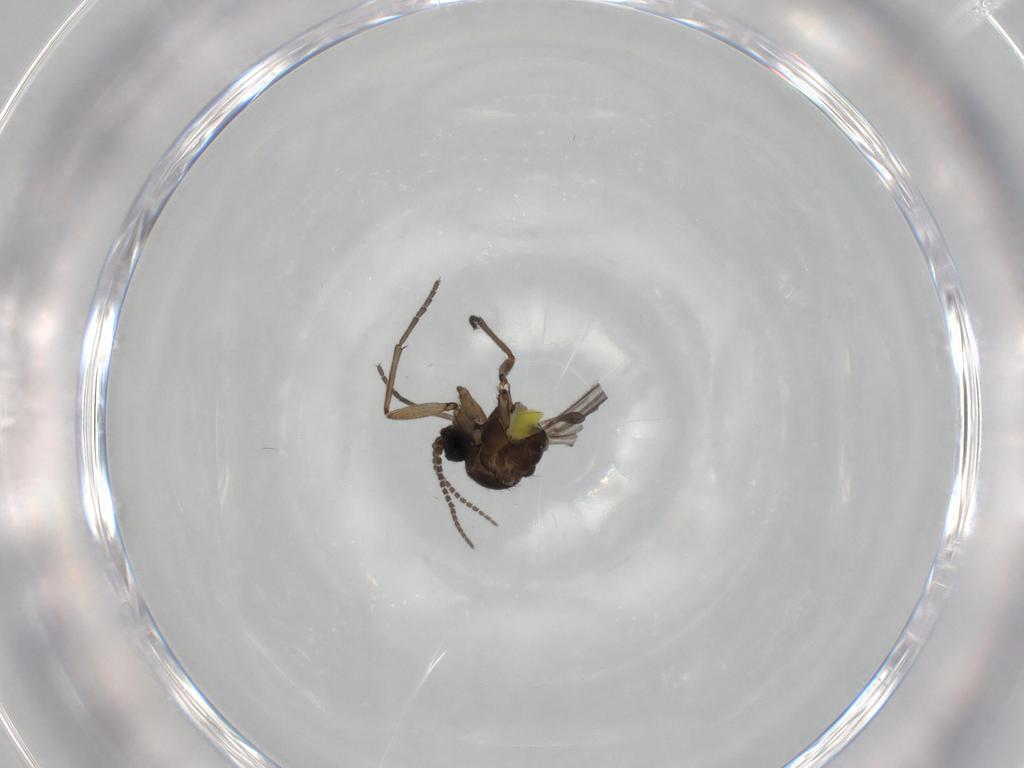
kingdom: Animalia
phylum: Arthropoda
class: Insecta
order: Diptera
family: Sciaridae
